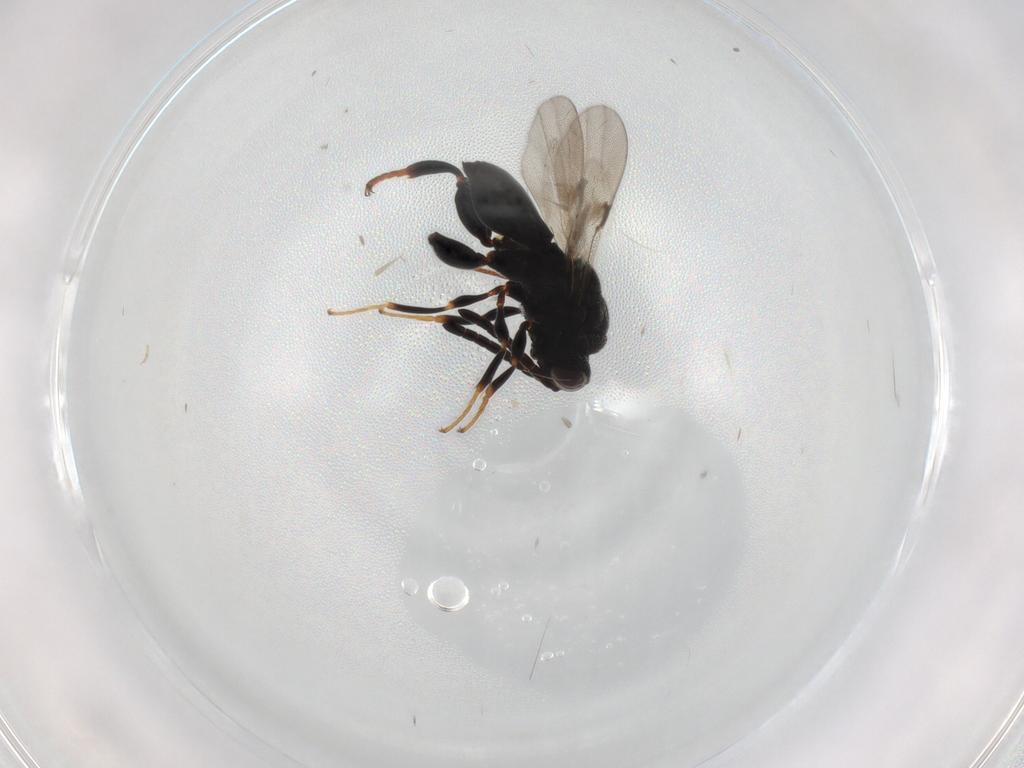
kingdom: Animalia
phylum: Arthropoda
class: Insecta
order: Hymenoptera
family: Chalcididae
